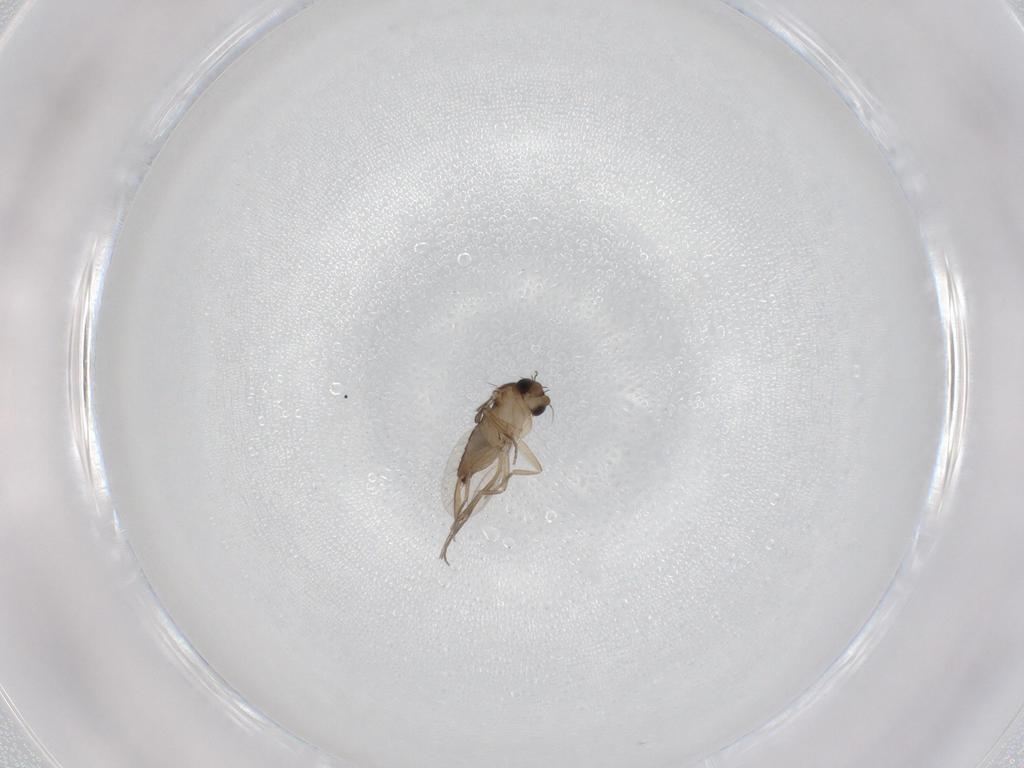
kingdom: Animalia
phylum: Arthropoda
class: Insecta
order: Diptera
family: Phoridae
